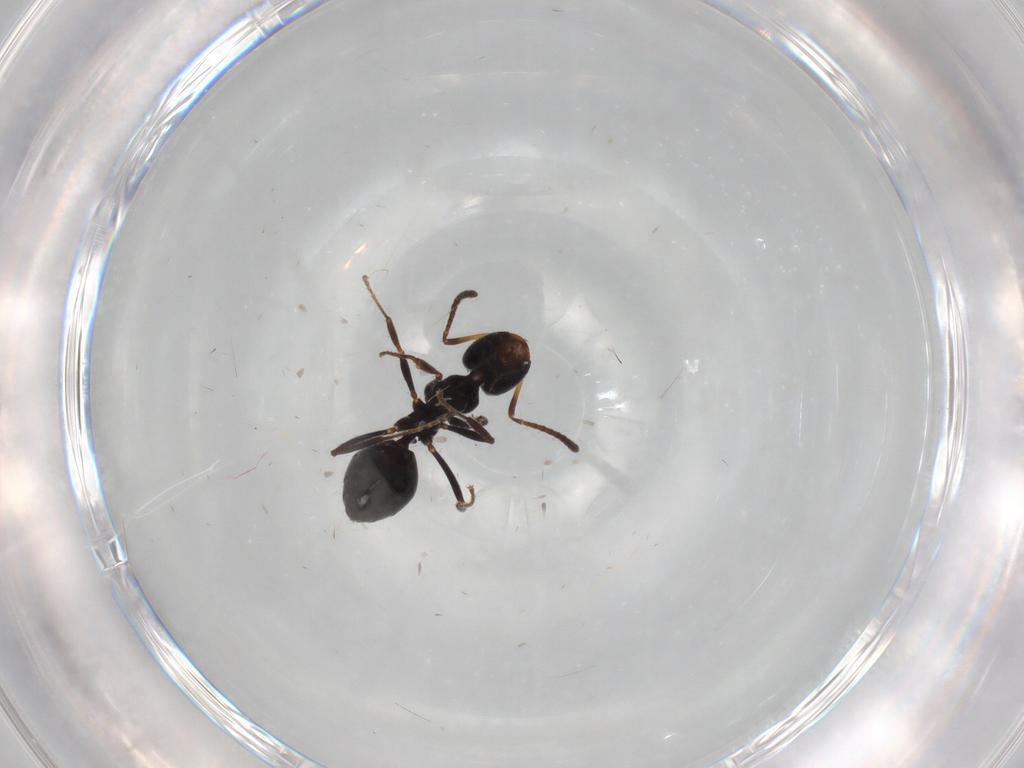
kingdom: Animalia
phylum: Arthropoda
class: Insecta
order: Hymenoptera
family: Formicidae
